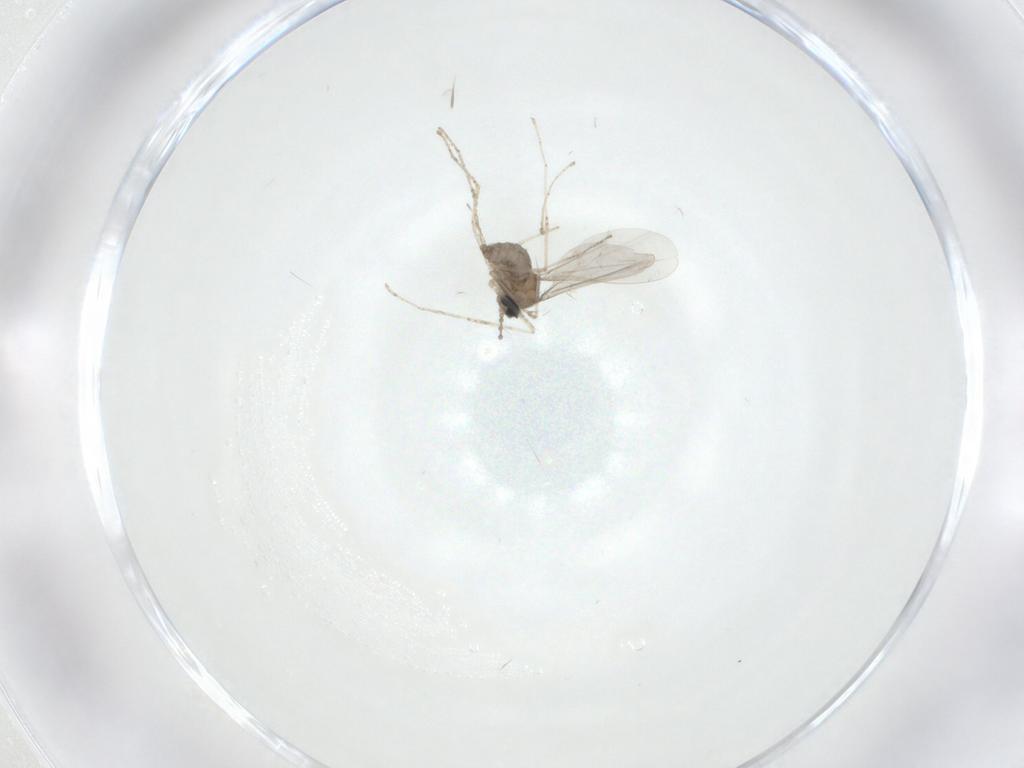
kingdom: Animalia
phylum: Arthropoda
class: Insecta
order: Diptera
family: Cecidomyiidae
